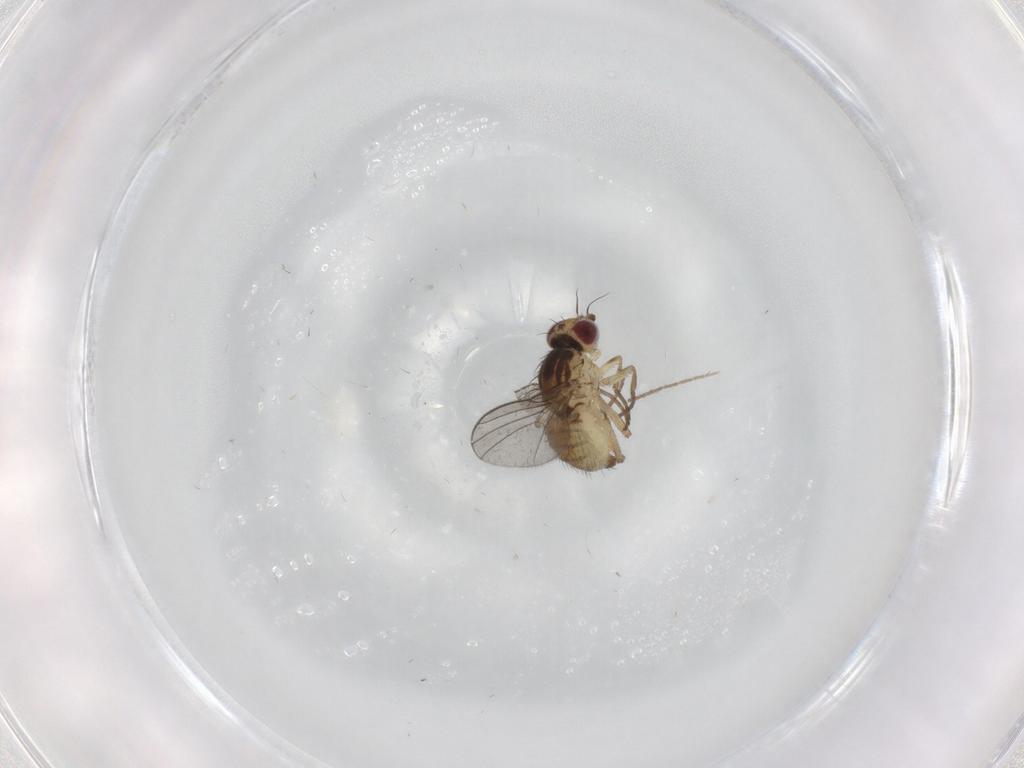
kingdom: Animalia
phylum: Arthropoda
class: Insecta
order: Diptera
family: Agromyzidae
